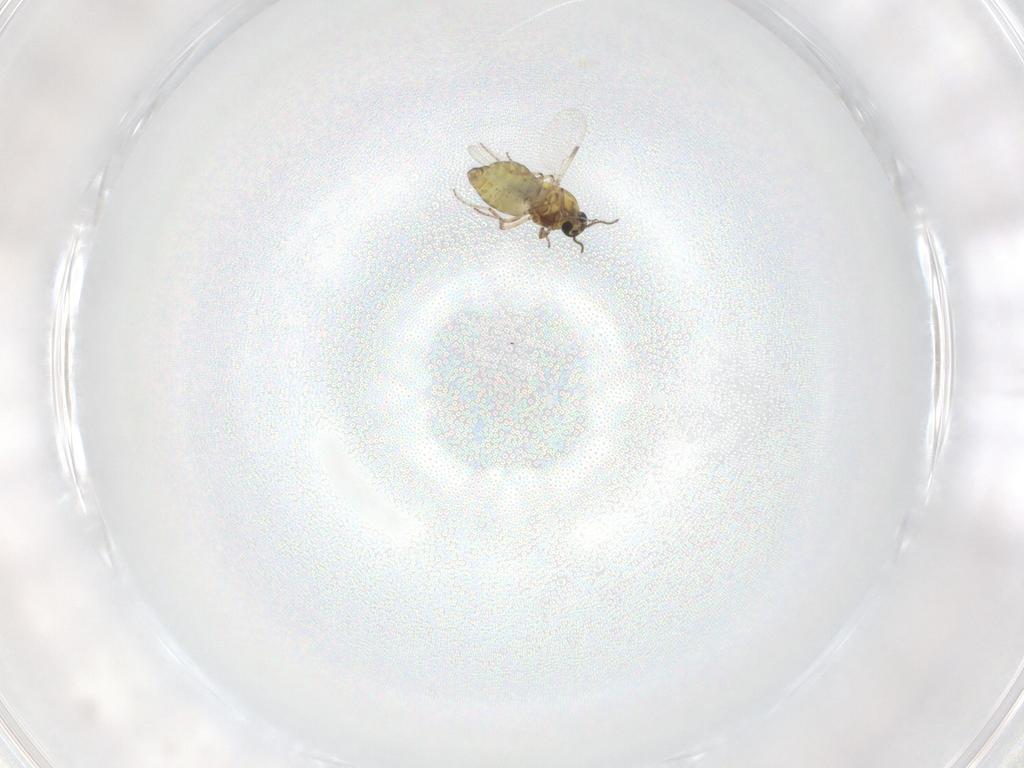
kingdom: Animalia
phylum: Arthropoda
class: Insecta
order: Diptera
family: Ceratopogonidae
